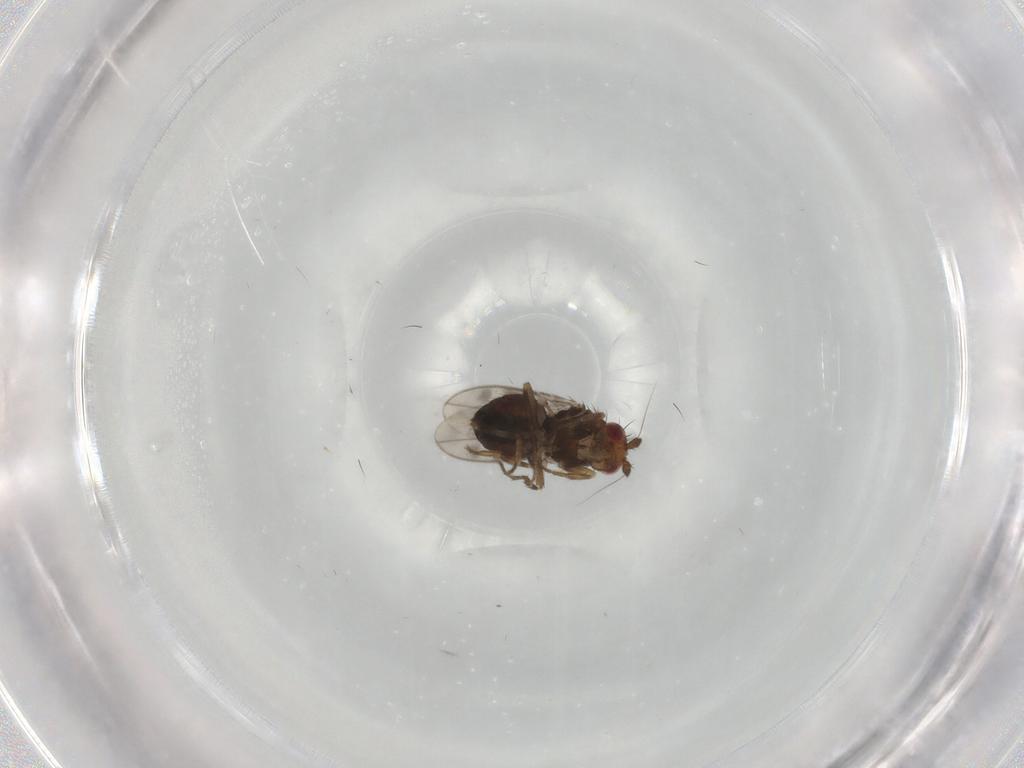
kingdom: Animalia
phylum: Arthropoda
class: Insecta
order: Diptera
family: Sphaeroceridae
